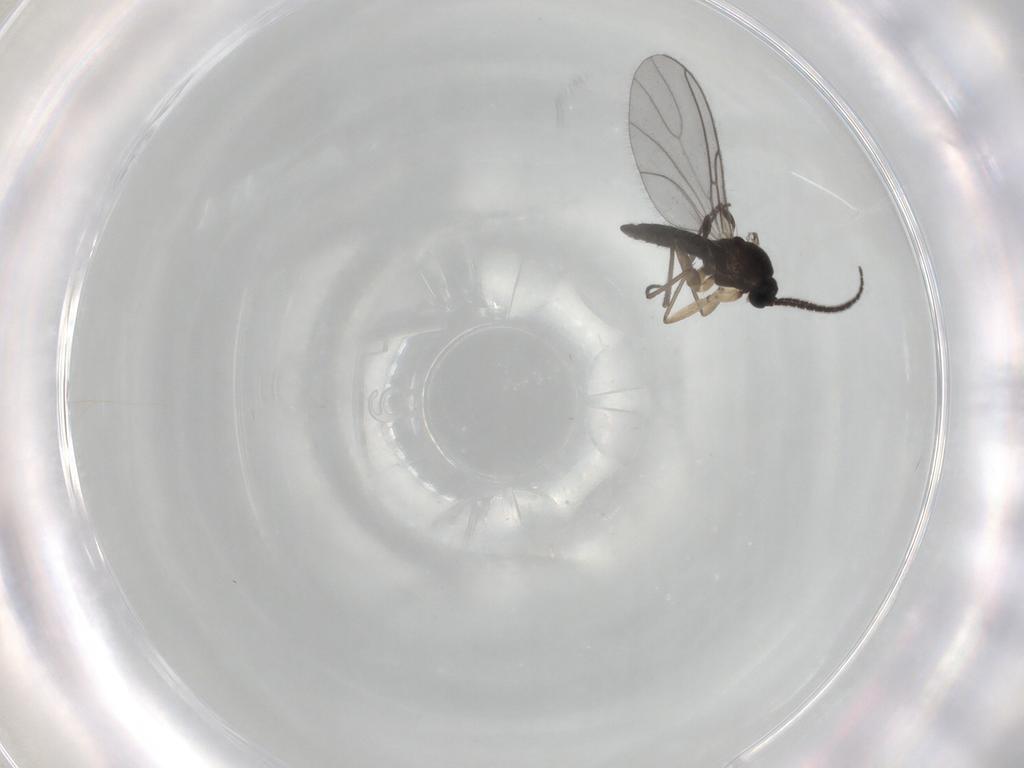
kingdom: Animalia
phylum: Arthropoda
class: Insecta
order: Diptera
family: Sciaridae
